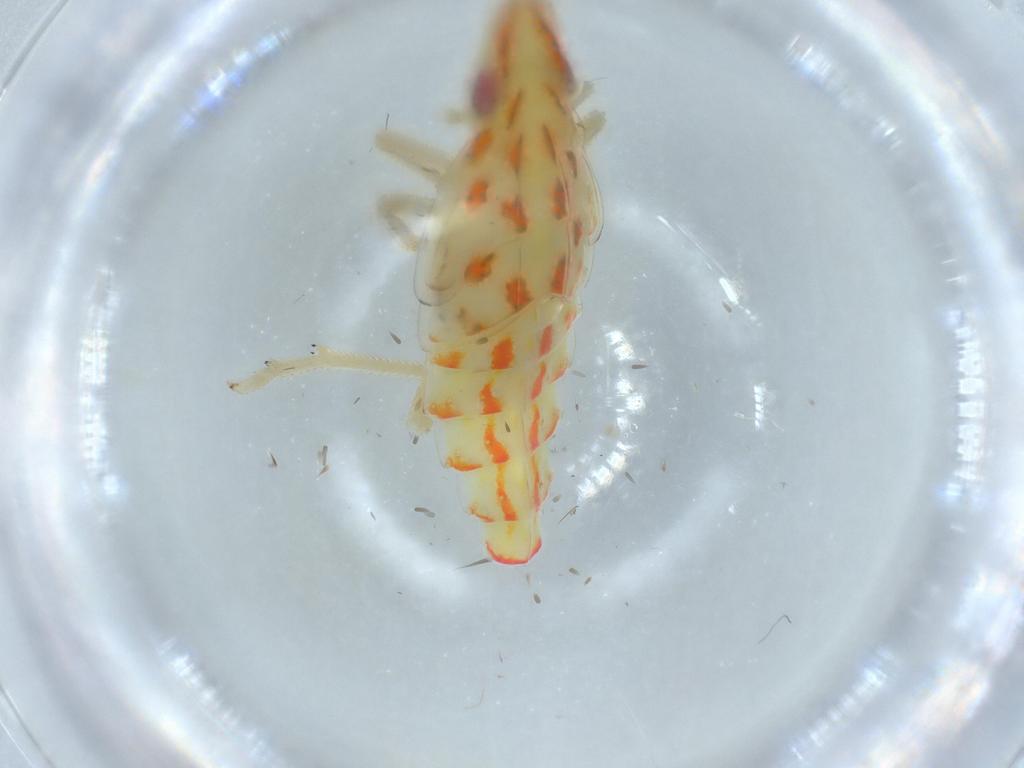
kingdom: Animalia
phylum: Arthropoda
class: Insecta
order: Hemiptera
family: Tropiduchidae
